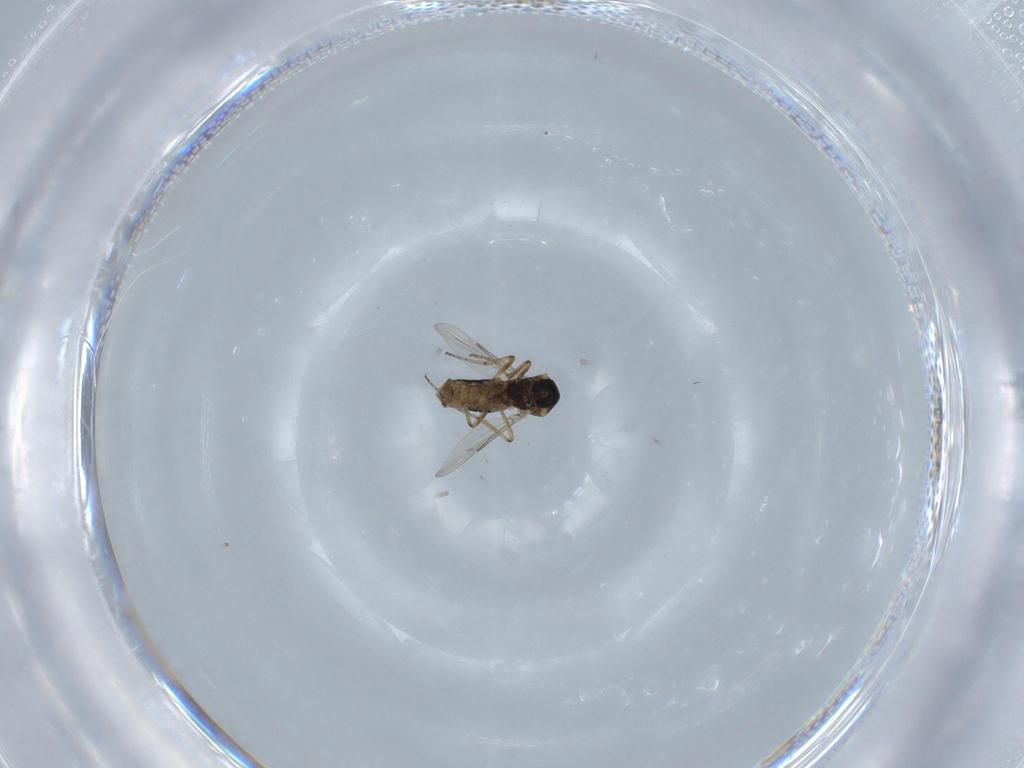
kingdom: Animalia
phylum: Arthropoda
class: Insecta
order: Diptera
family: Ceratopogonidae
